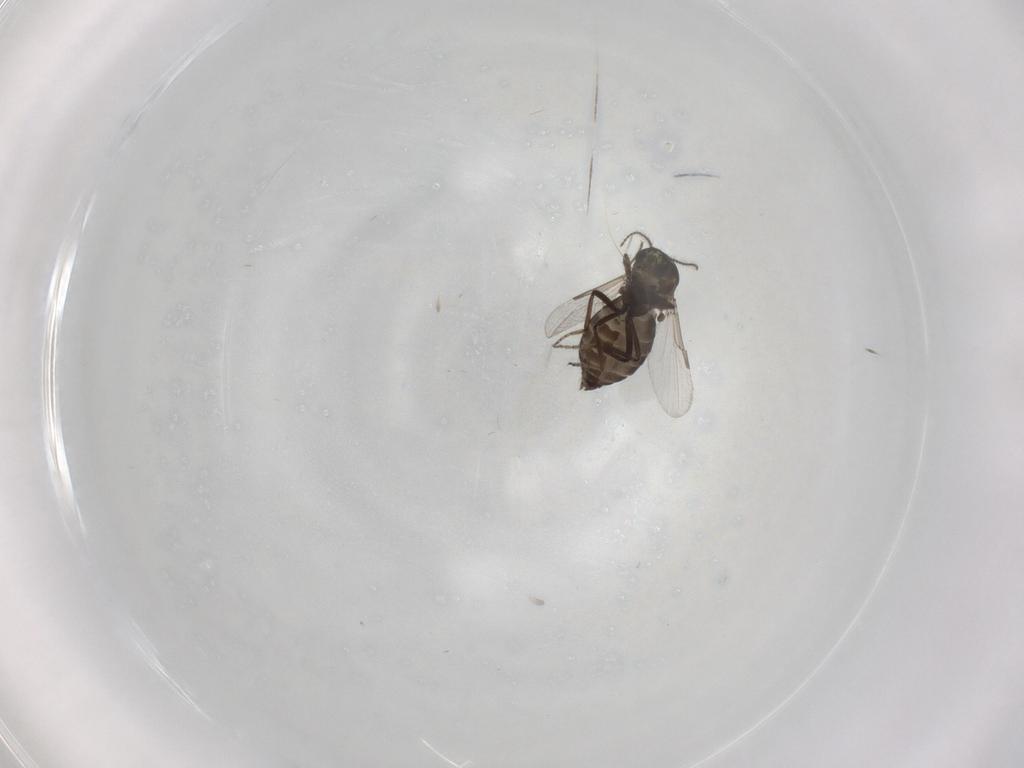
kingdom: Animalia
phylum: Arthropoda
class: Insecta
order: Diptera
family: Ceratopogonidae
